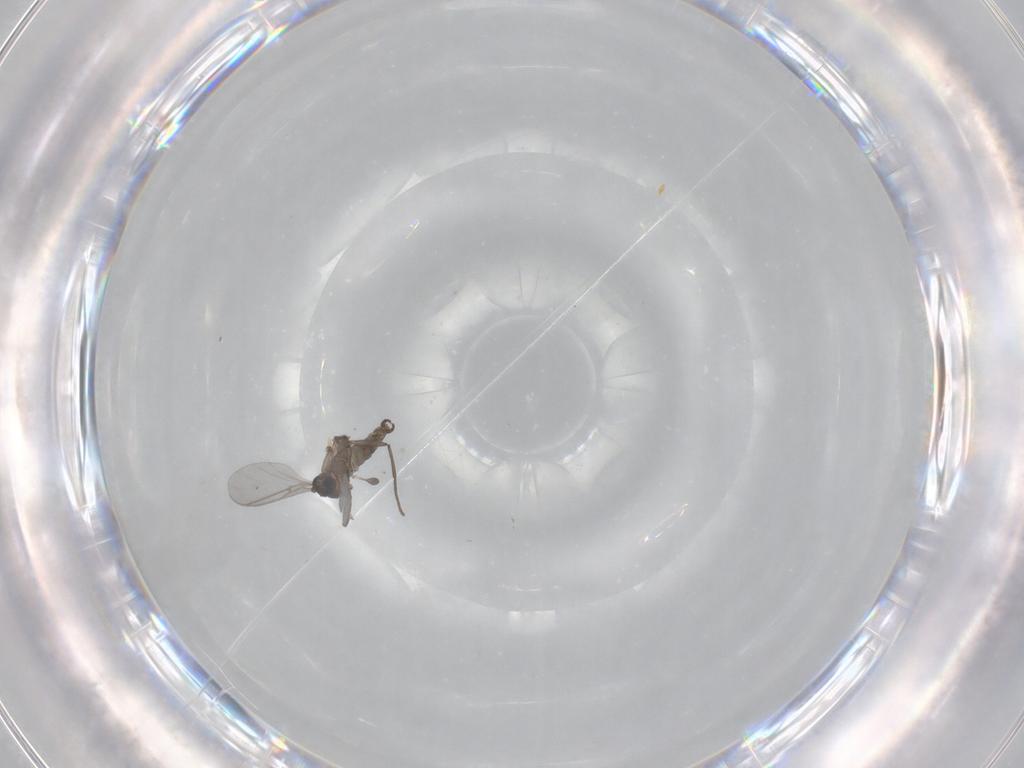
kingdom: Animalia
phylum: Arthropoda
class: Insecta
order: Diptera
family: Sciaridae
